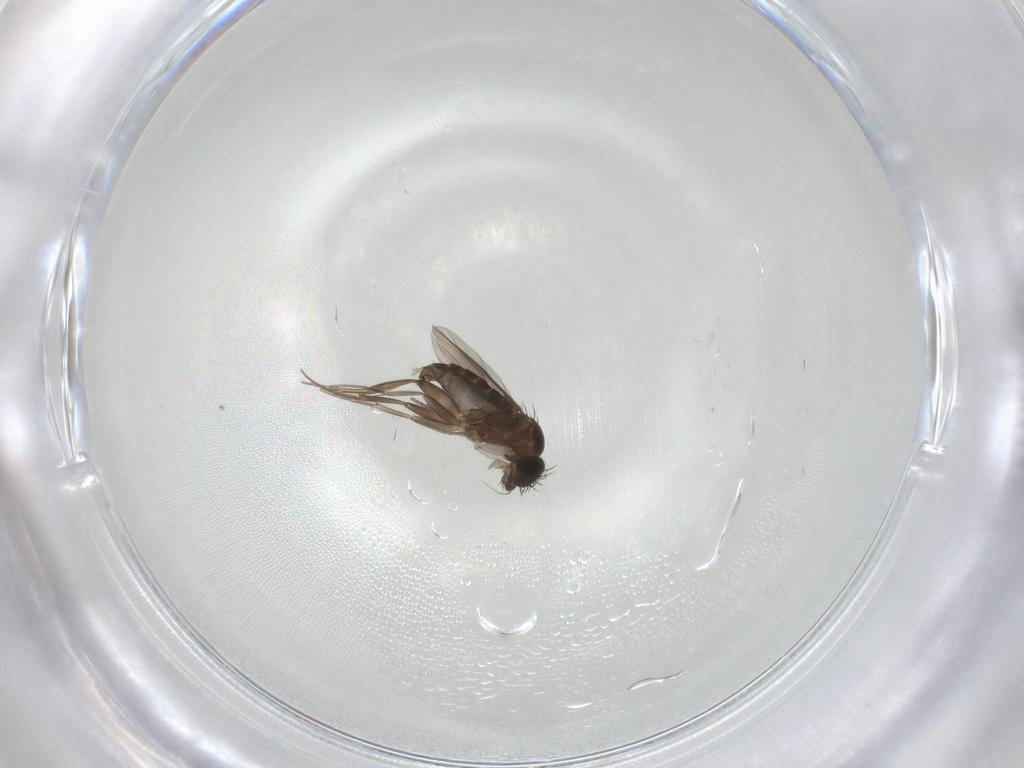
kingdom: Animalia
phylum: Arthropoda
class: Insecta
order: Diptera
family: Phoridae
